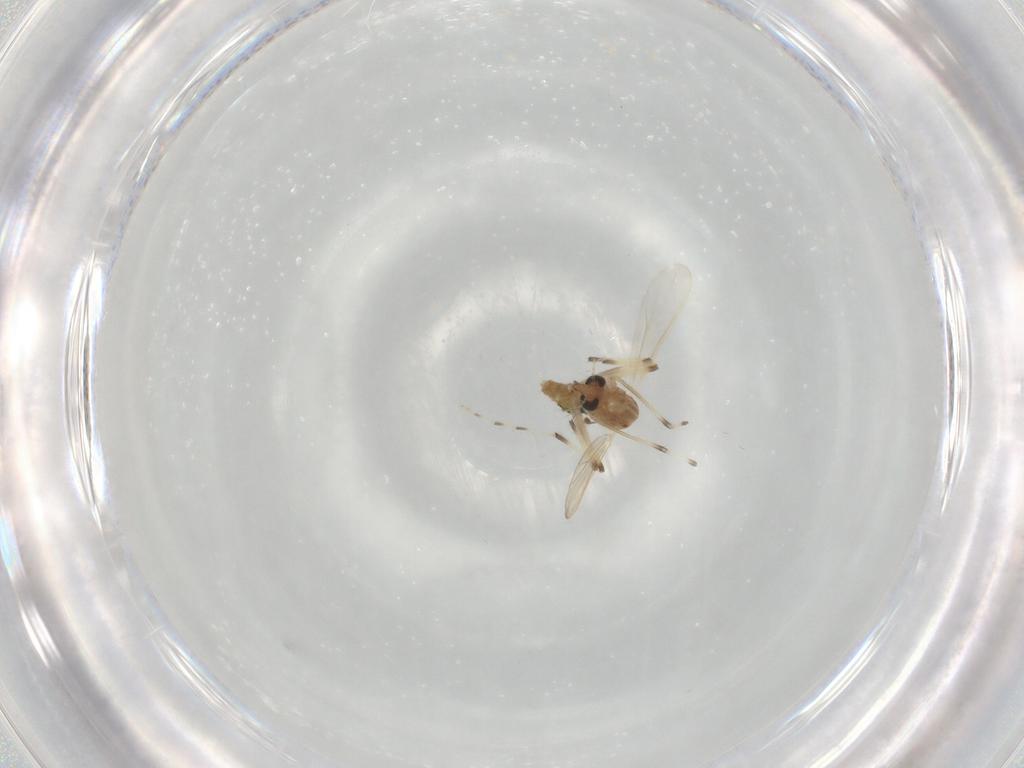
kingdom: Animalia
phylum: Arthropoda
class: Insecta
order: Diptera
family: Chironomidae
